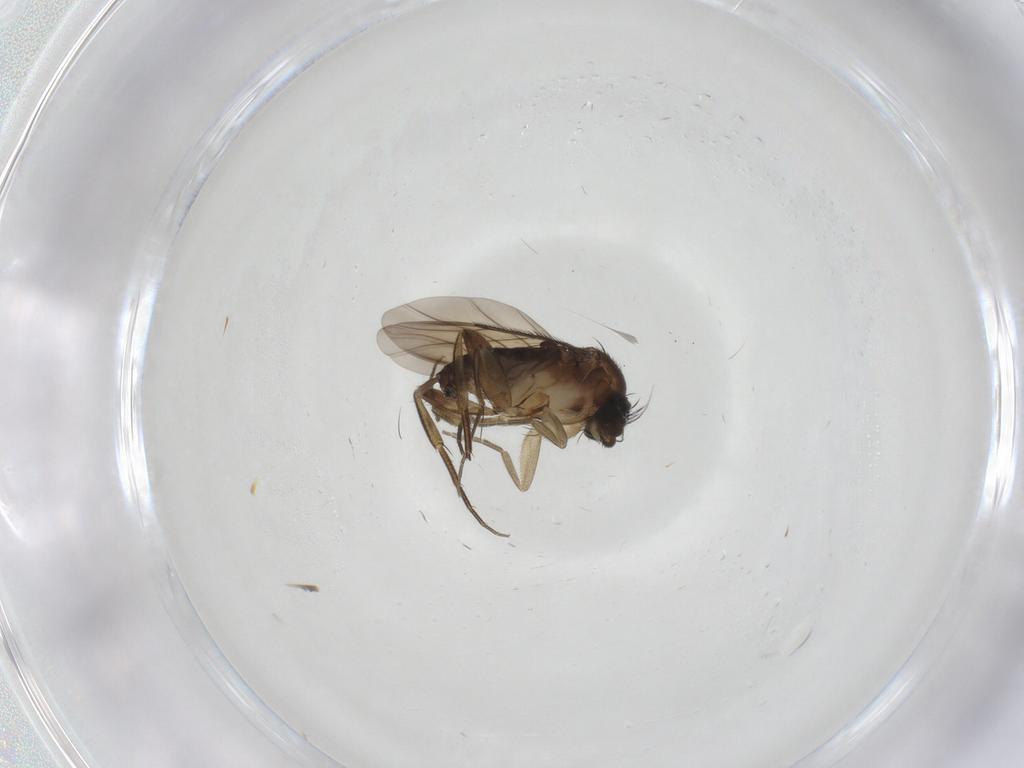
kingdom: Animalia
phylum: Arthropoda
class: Insecta
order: Diptera
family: Phoridae
